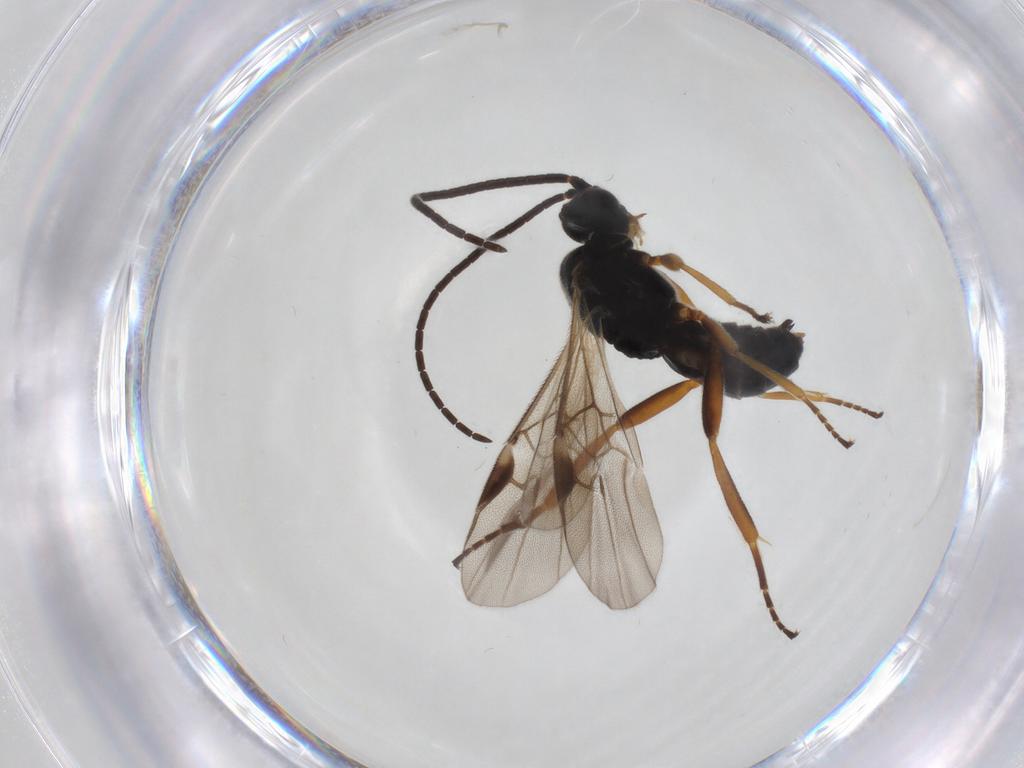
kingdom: Animalia
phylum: Arthropoda
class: Insecta
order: Hymenoptera
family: Braconidae
